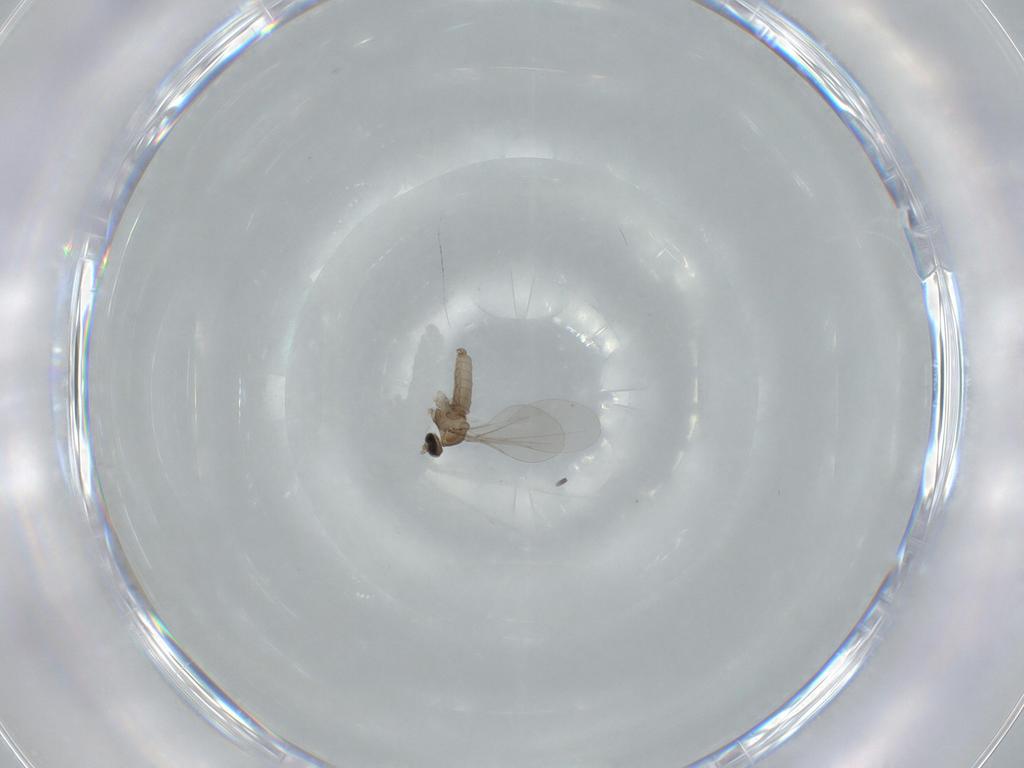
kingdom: Animalia
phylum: Arthropoda
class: Insecta
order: Diptera
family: Cecidomyiidae
